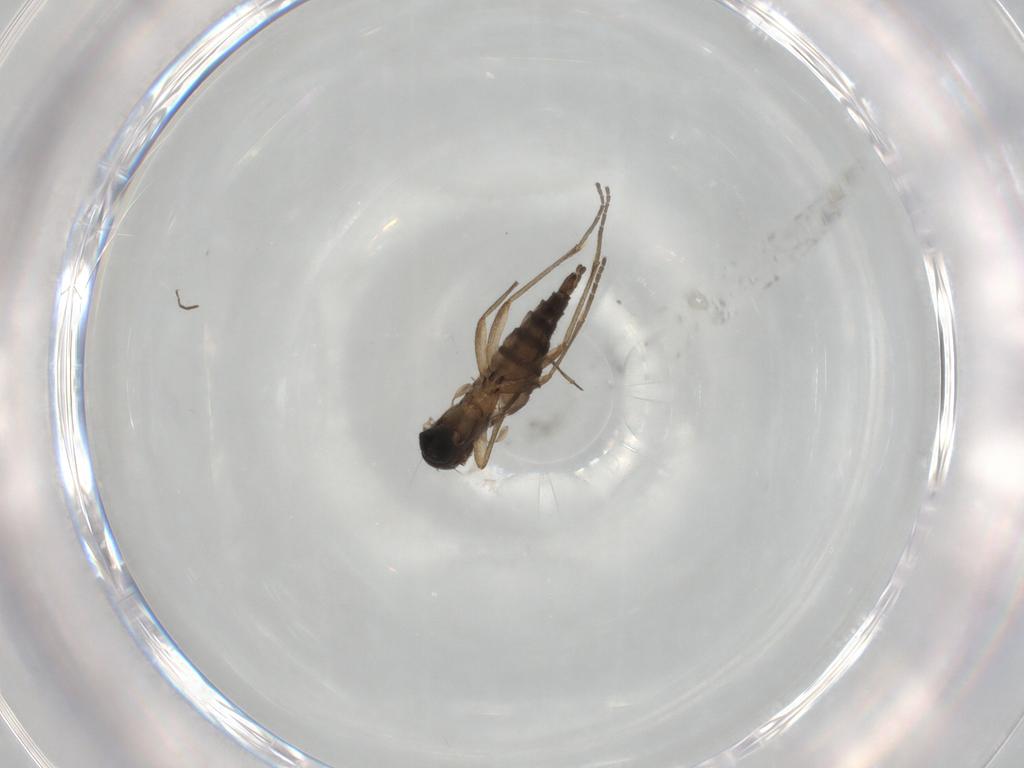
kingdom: Animalia
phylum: Arthropoda
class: Insecta
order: Diptera
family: Sciaridae
